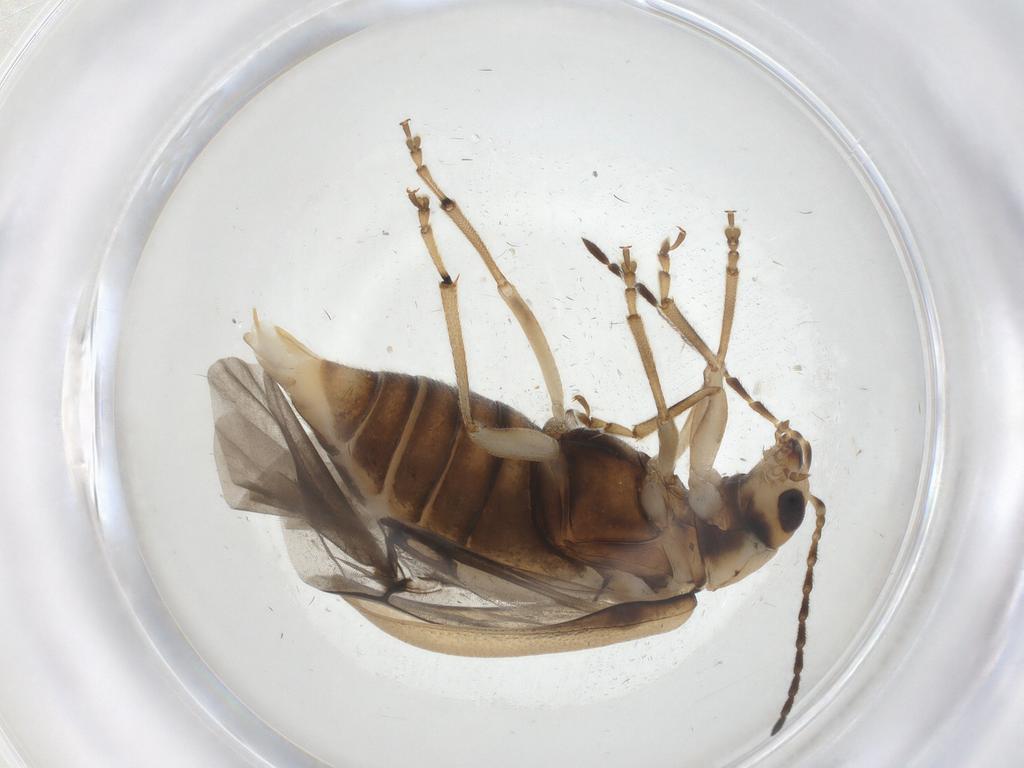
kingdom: Animalia
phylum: Arthropoda
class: Insecta
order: Coleoptera
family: Chrysomelidae
